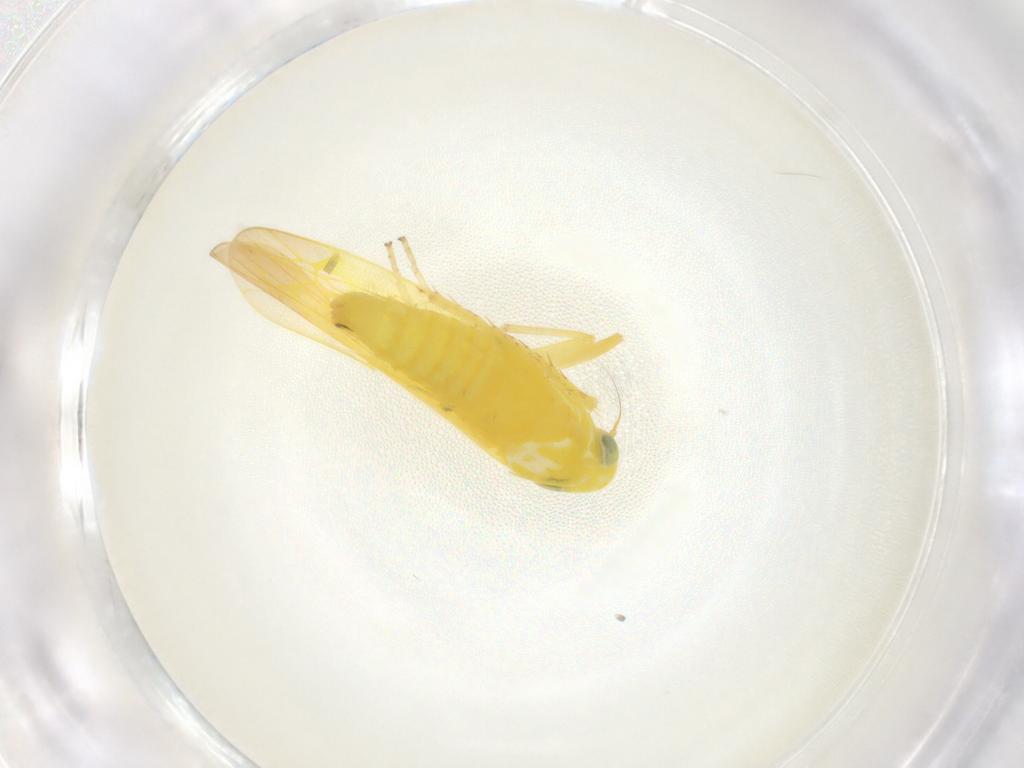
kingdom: Animalia
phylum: Arthropoda
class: Insecta
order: Hemiptera
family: Cicadellidae
